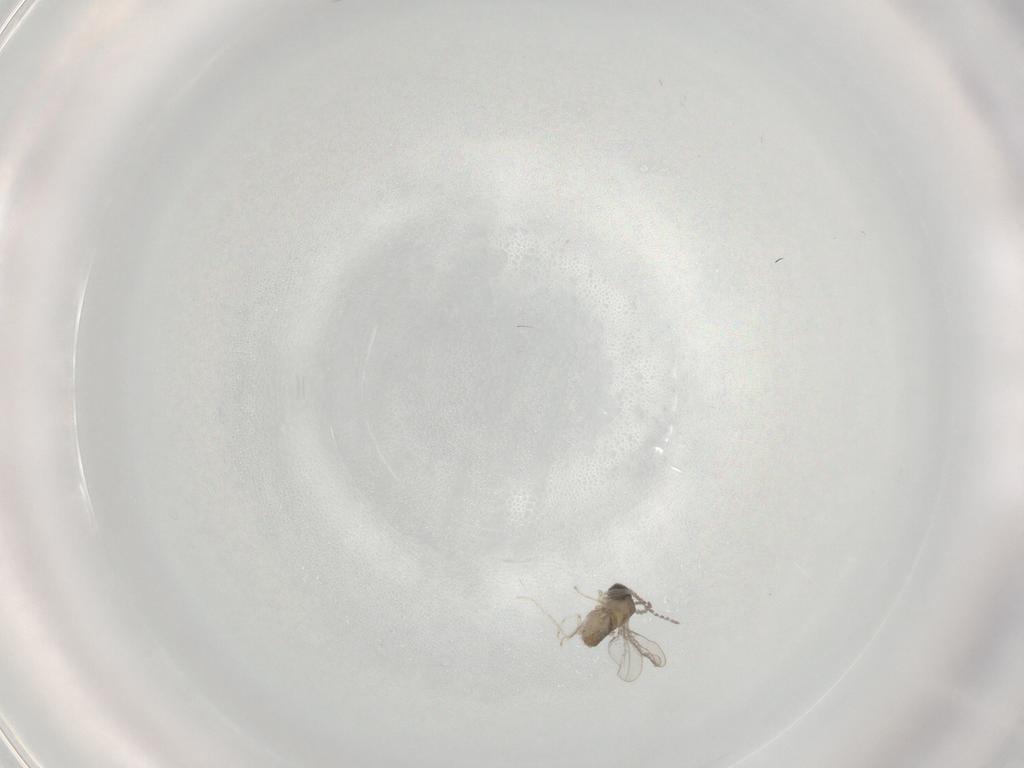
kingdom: Animalia
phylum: Arthropoda
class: Insecta
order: Diptera
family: Cecidomyiidae
